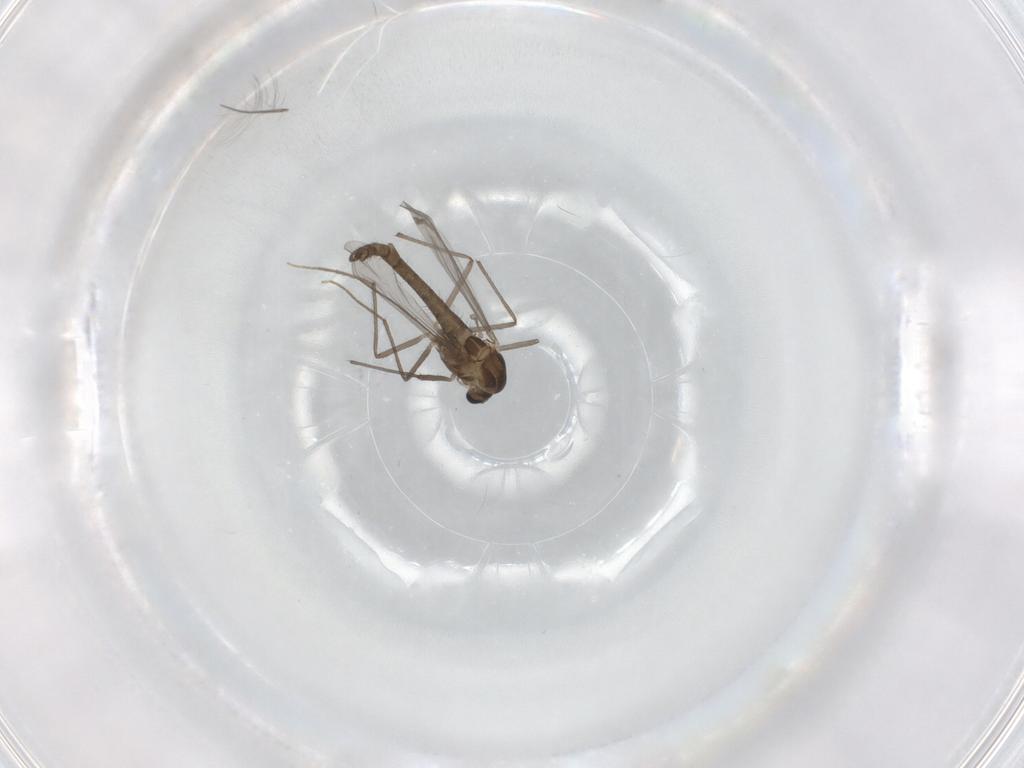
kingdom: Animalia
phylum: Arthropoda
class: Insecta
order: Diptera
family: Chironomidae
